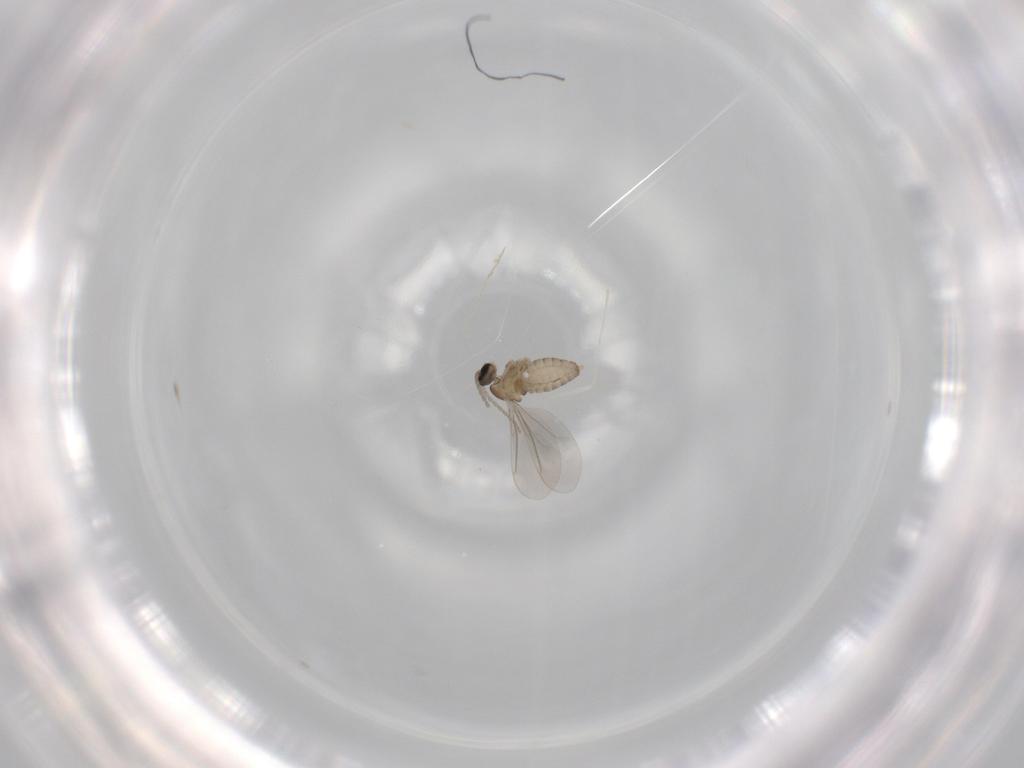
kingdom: Animalia
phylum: Arthropoda
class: Insecta
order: Diptera
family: Cecidomyiidae
